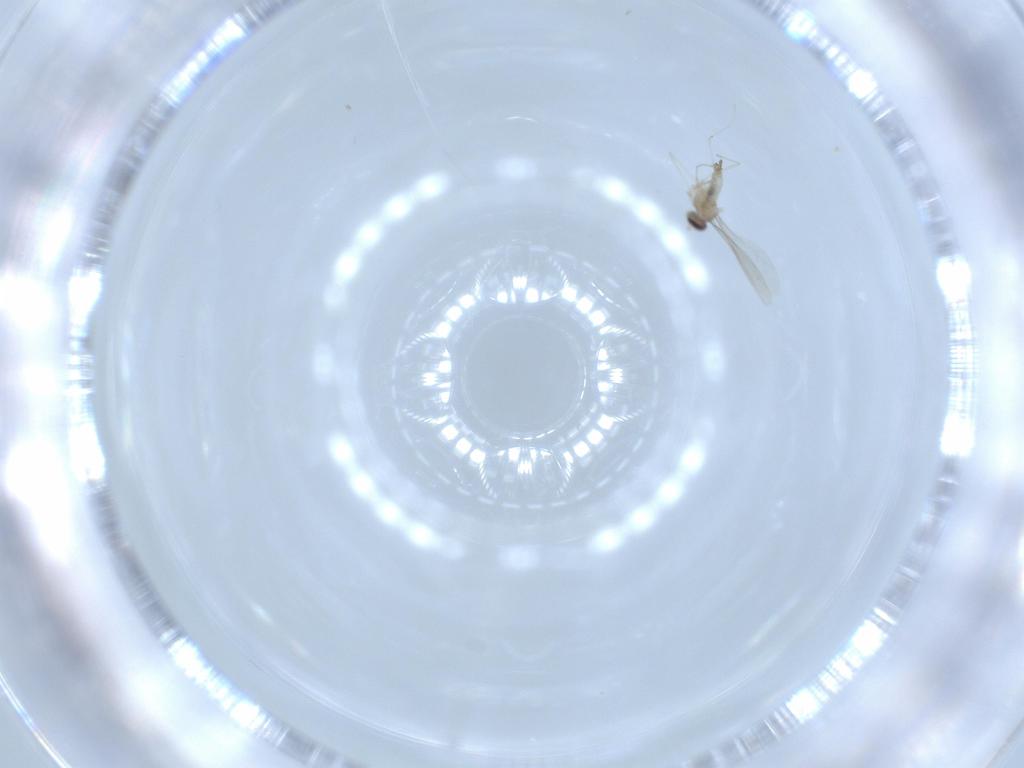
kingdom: Animalia
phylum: Arthropoda
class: Insecta
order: Diptera
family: Cecidomyiidae
